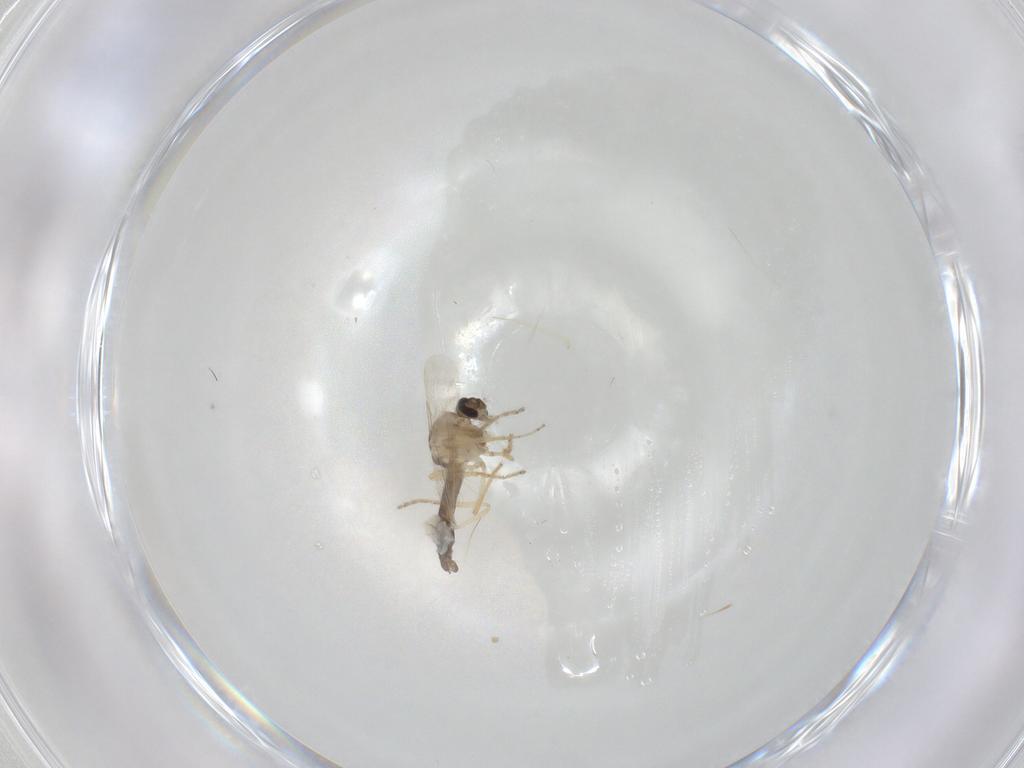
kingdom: Animalia
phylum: Arthropoda
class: Insecta
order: Diptera
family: Ceratopogonidae
